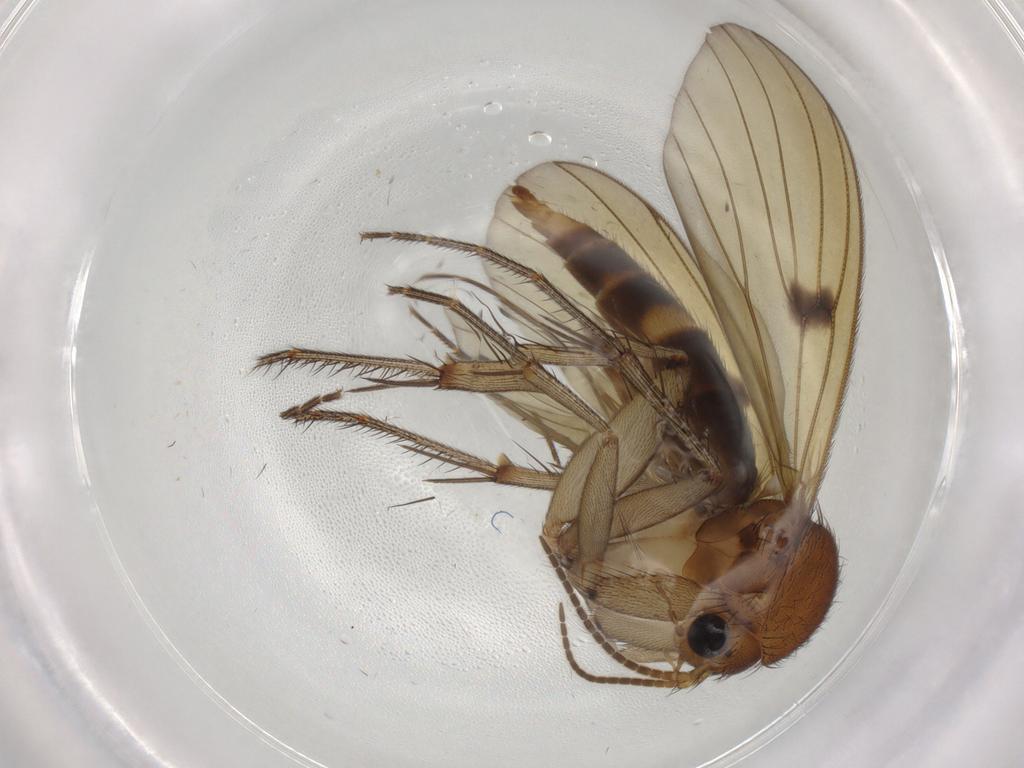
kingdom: Animalia
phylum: Arthropoda
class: Insecta
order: Diptera
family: Mycetophilidae
